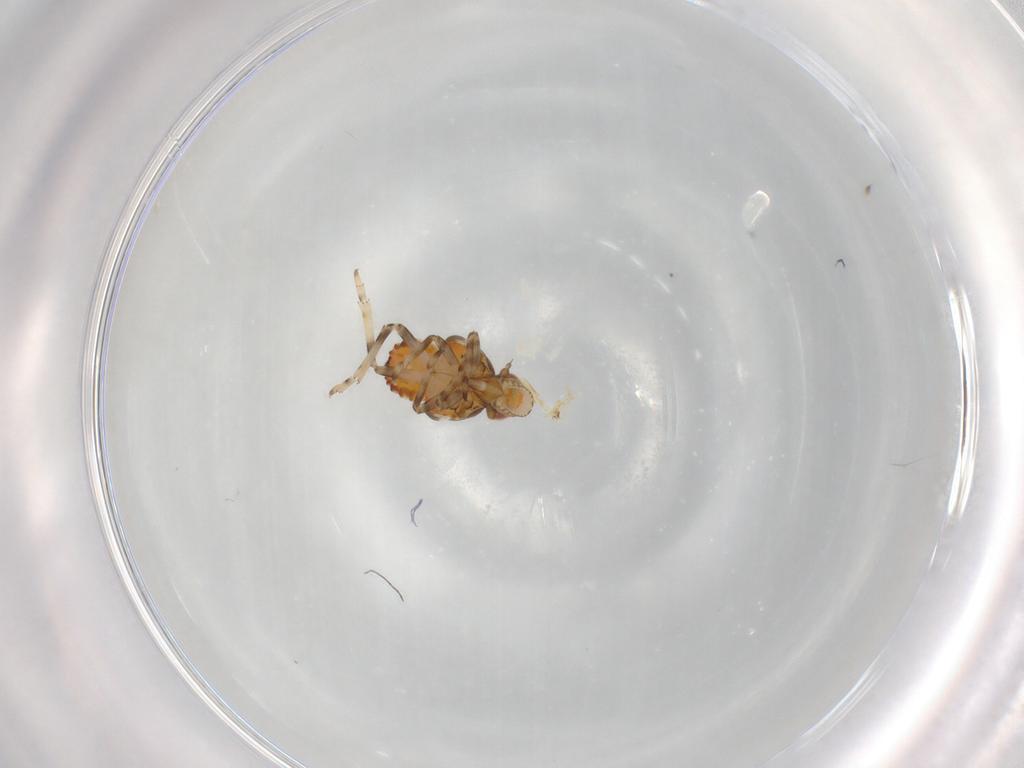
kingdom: Animalia
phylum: Arthropoda
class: Insecta
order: Hemiptera
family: Tropiduchidae
